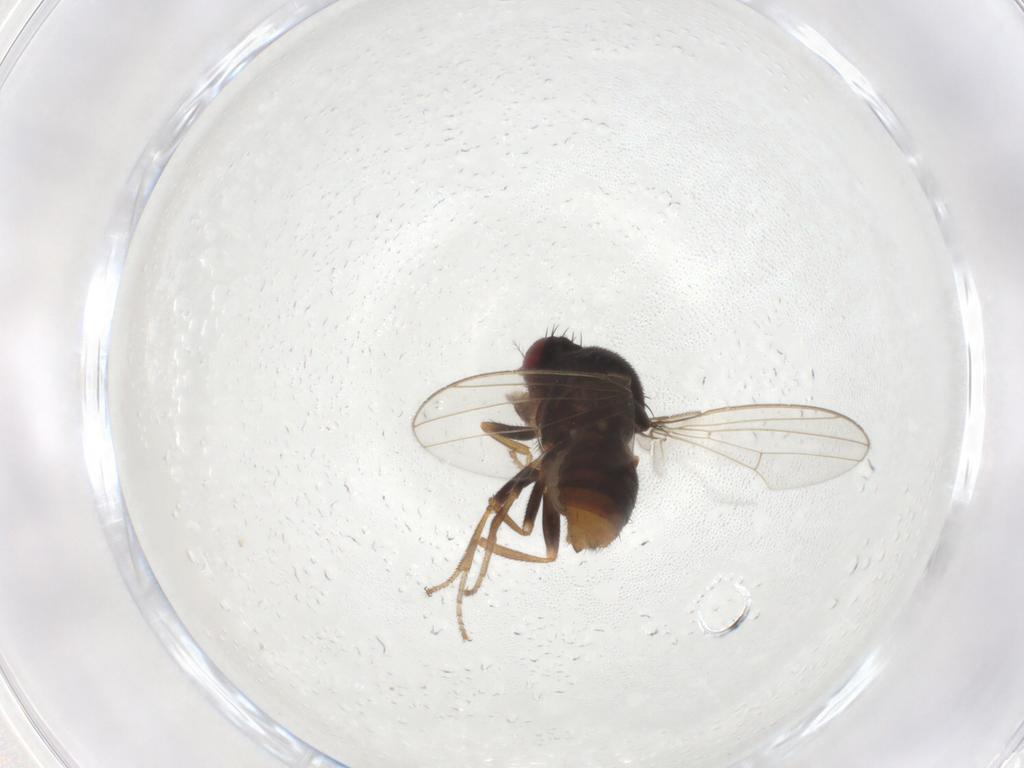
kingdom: Animalia
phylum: Arthropoda
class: Insecta
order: Diptera
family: Drosophilidae
